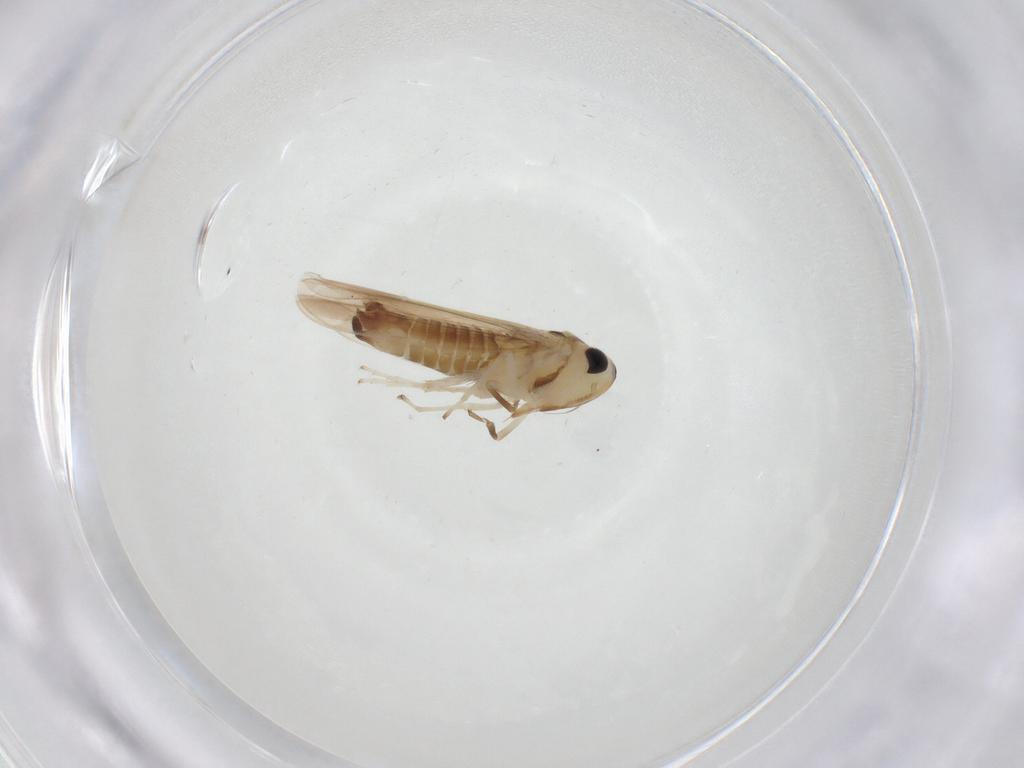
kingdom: Animalia
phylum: Arthropoda
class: Insecta
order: Hemiptera
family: Cicadellidae
